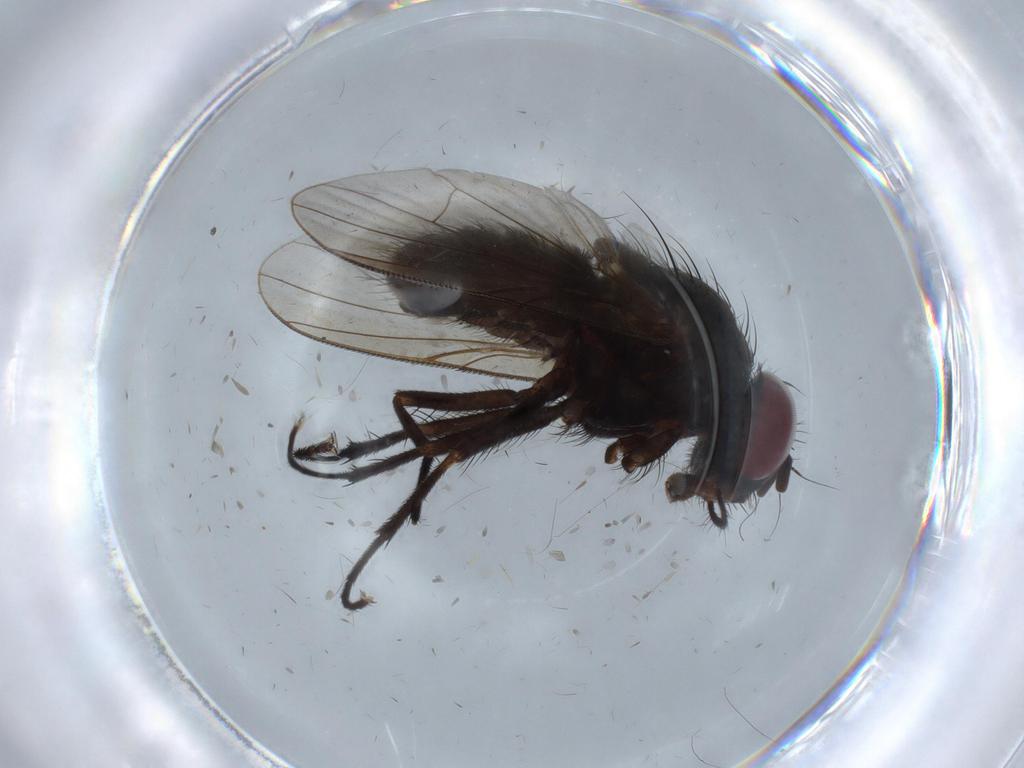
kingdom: Animalia
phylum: Arthropoda
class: Insecta
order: Diptera
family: Muscidae
